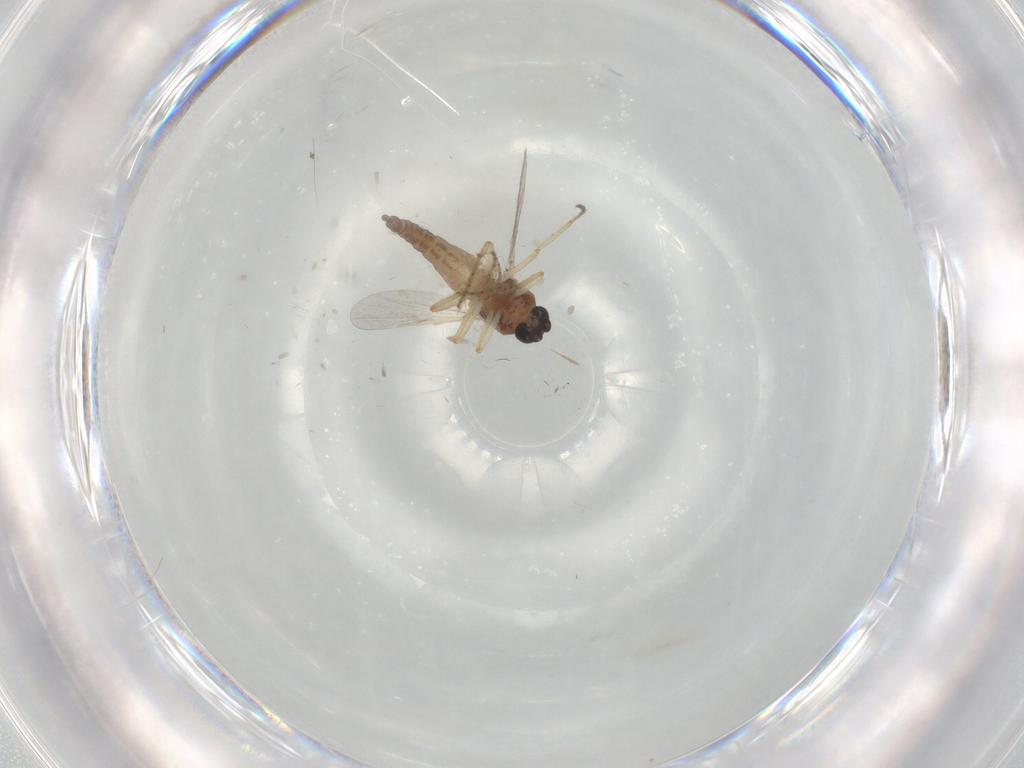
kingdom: Animalia
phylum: Arthropoda
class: Insecta
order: Diptera
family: Ceratopogonidae
